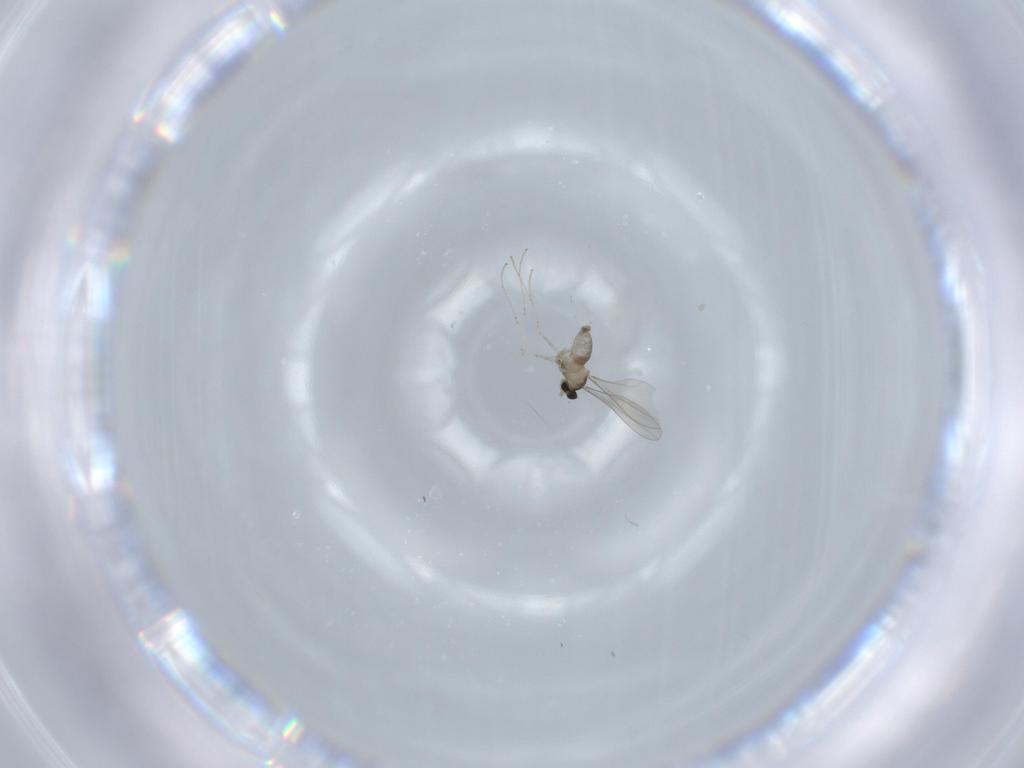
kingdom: Animalia
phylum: Arthropoda
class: Insecta
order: Diptera
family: Cecidomyiidae
